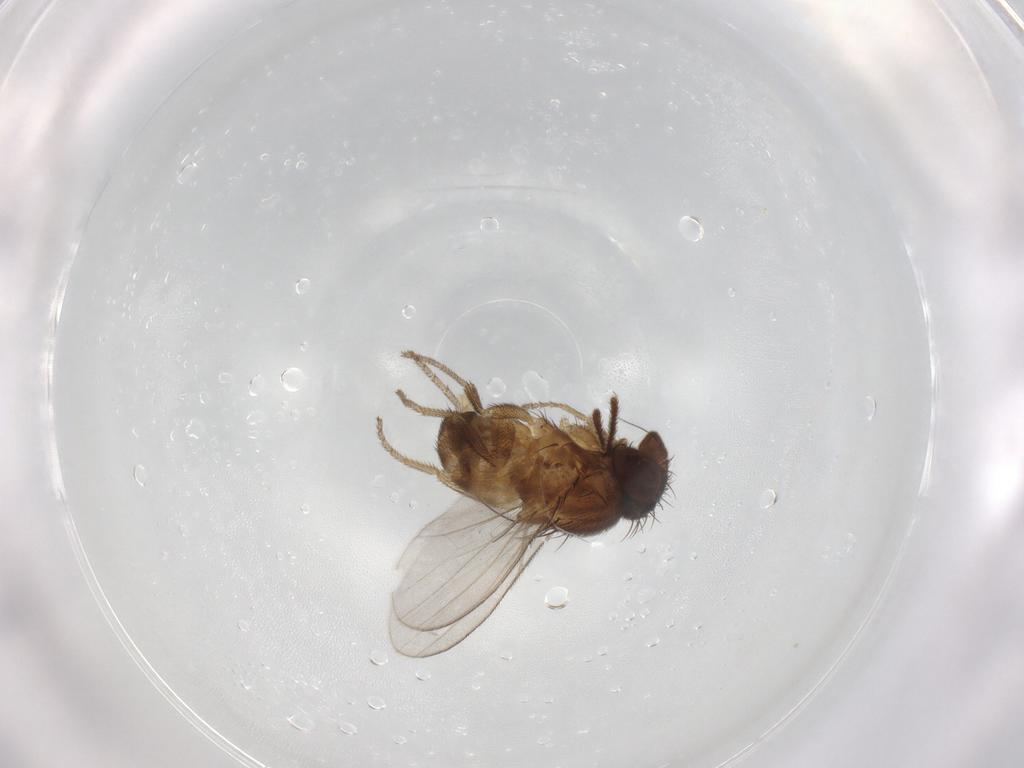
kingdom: Animalia
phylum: Arthropoda
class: Insecta
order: Diptera
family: Milichiidae
